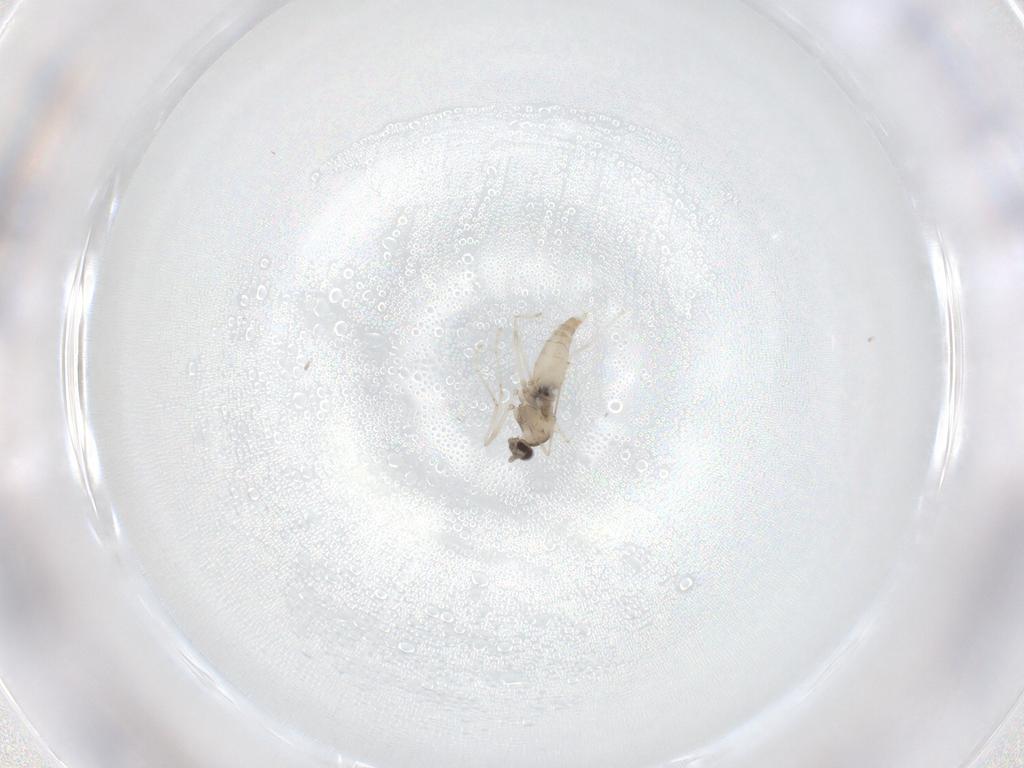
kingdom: Animalia
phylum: Arthropoda
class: Insecta
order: Diptera
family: Cecidomyiidae
